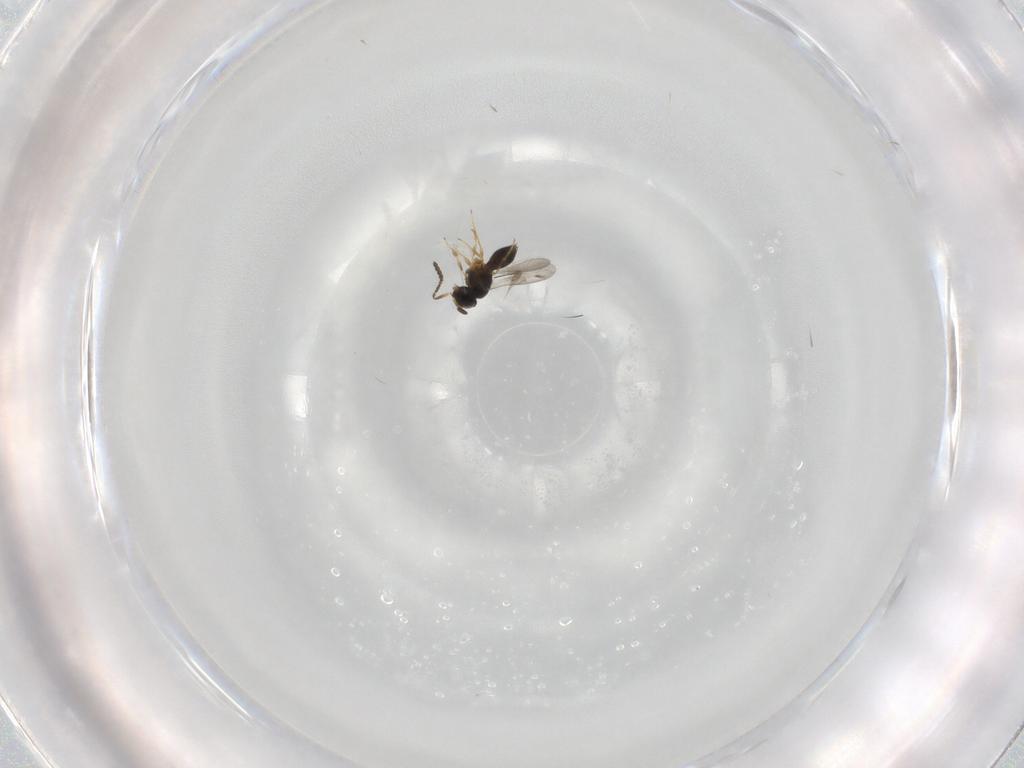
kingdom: Animalia
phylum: Arthropoda
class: Insecta
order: Hymenoptera
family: Scelionidae
